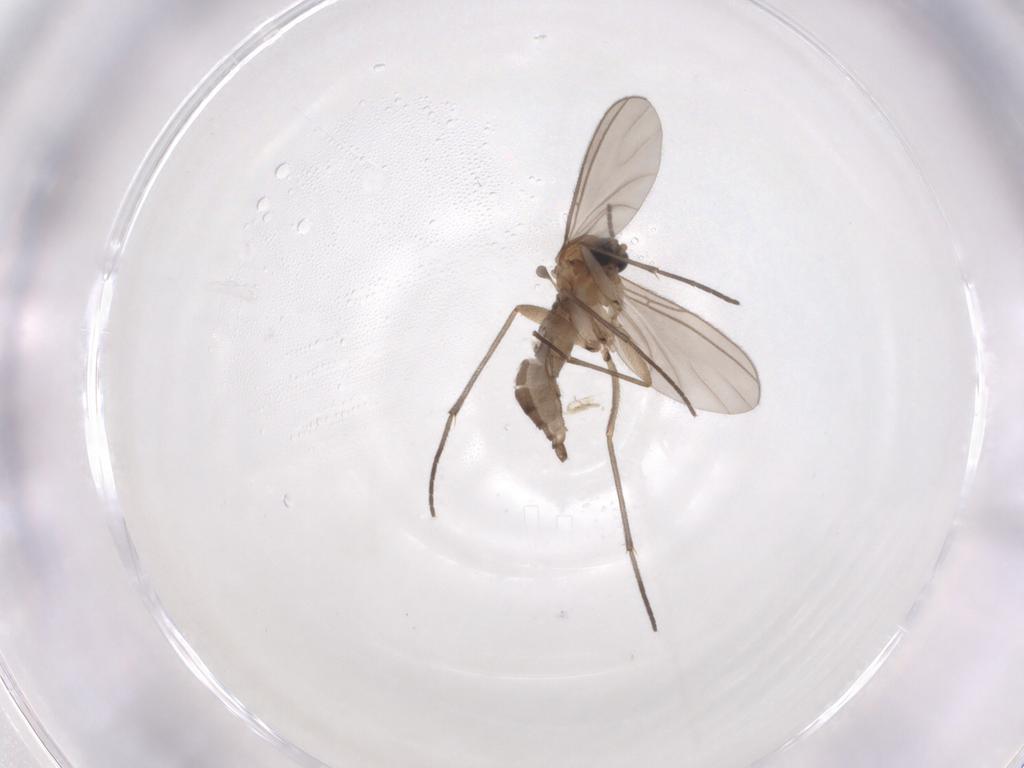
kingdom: Animalia
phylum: Arthropoda
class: Insecta
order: Diptera
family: Sciaridae
